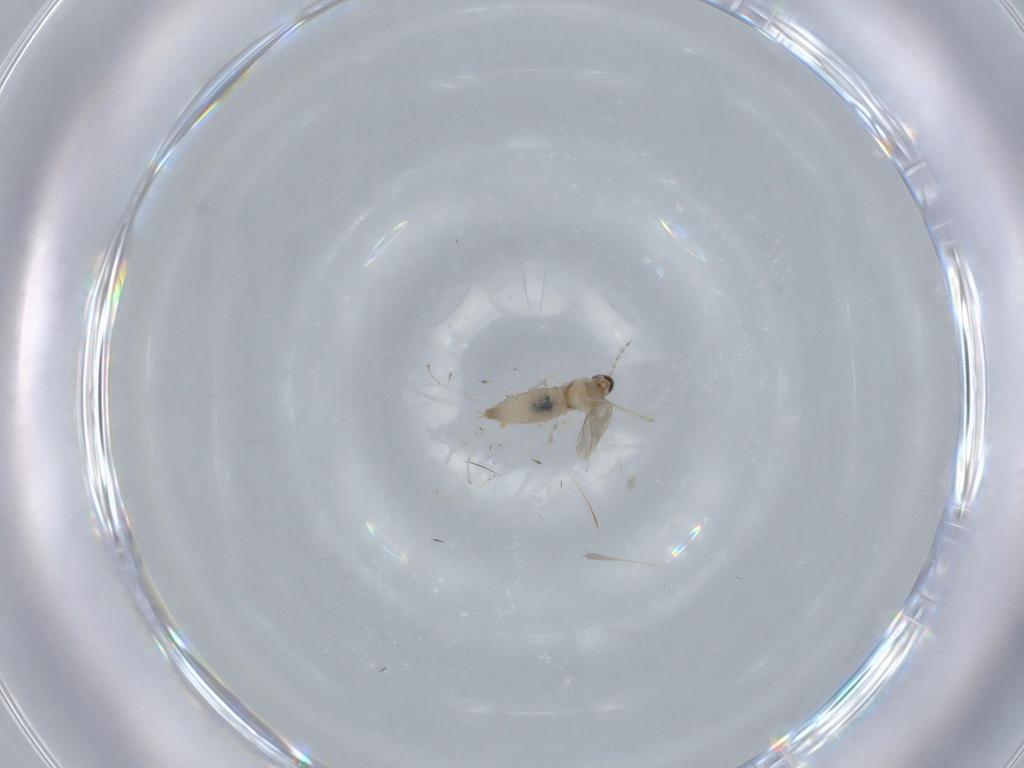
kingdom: Animalia
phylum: Arthropoda
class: Insecta
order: Diptera
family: Cecidomyiidae
